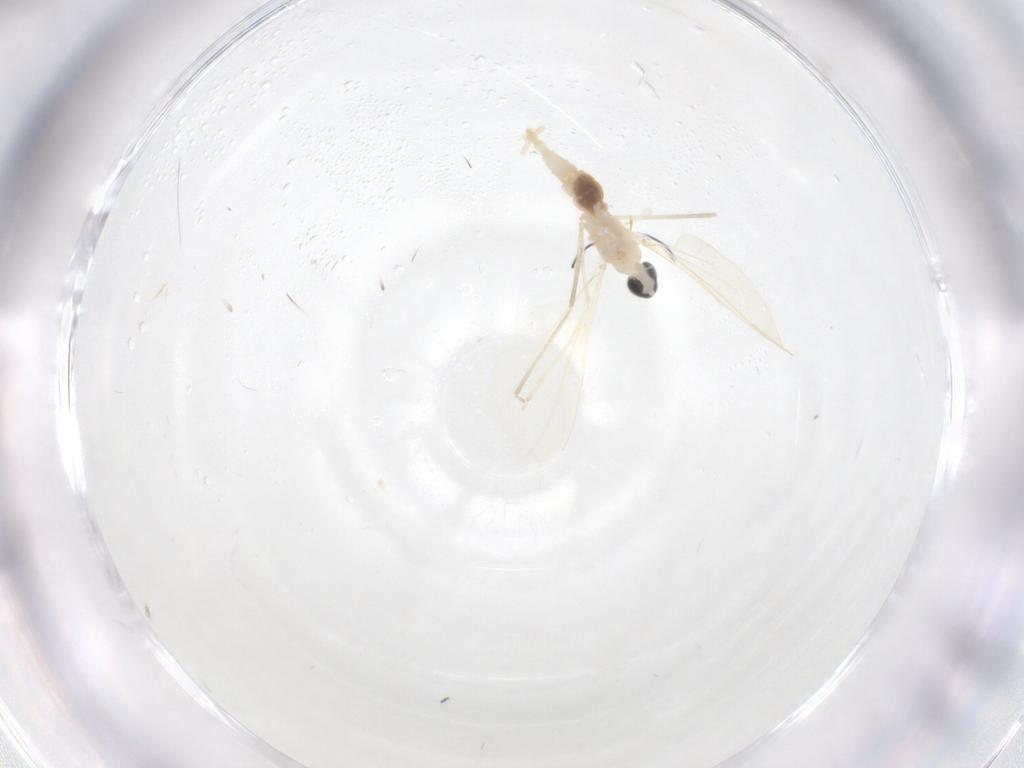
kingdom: Animalia
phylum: Arthropoda
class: Insecta
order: Diptera
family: Cecidomyiidae
